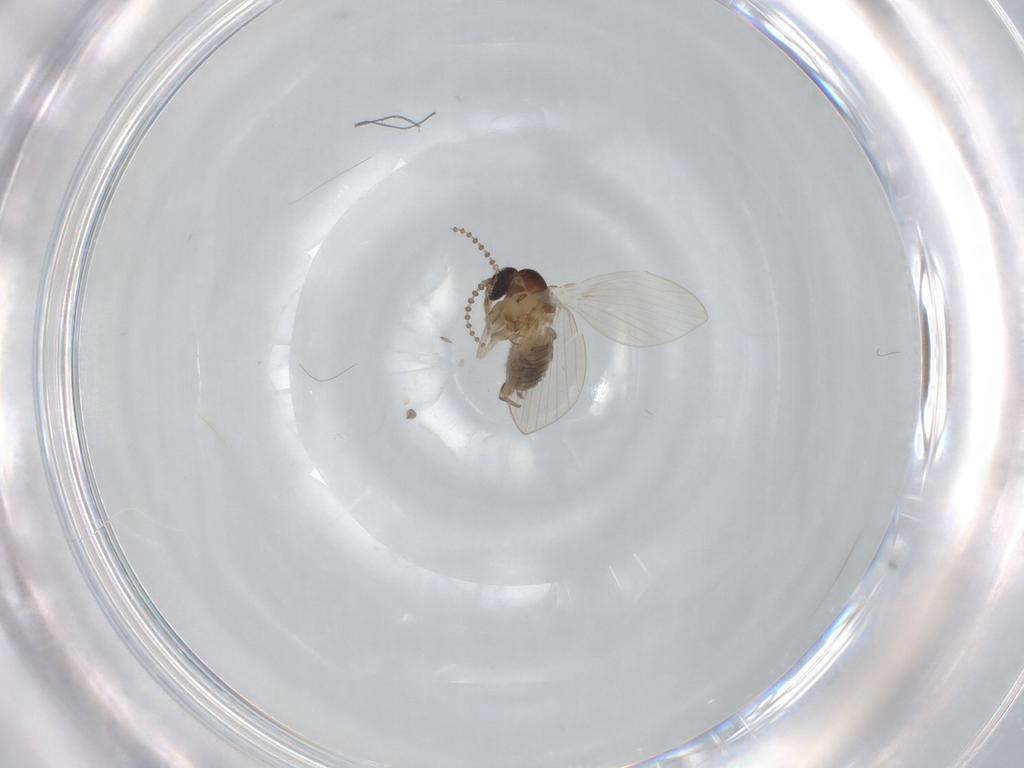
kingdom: Animalia
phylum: Arthropoda
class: Insecta
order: Diptera
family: Psychodidae
